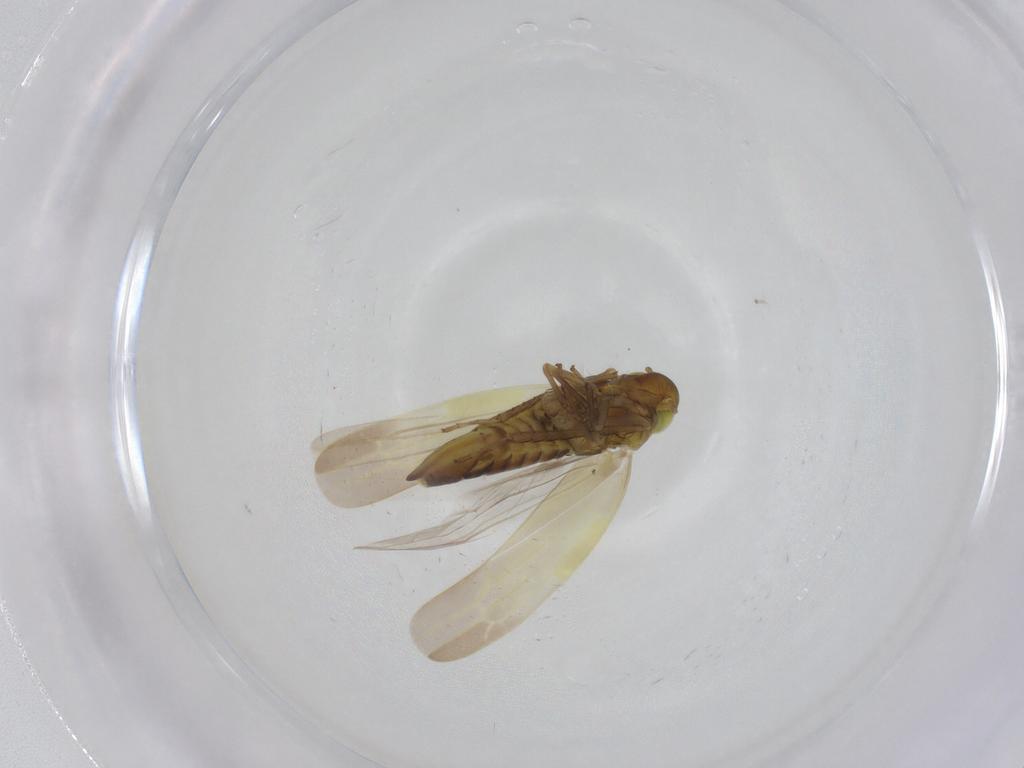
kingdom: Animalia
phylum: Arthropoda
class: Insecta
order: Hemiptera
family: Cicadellidae
